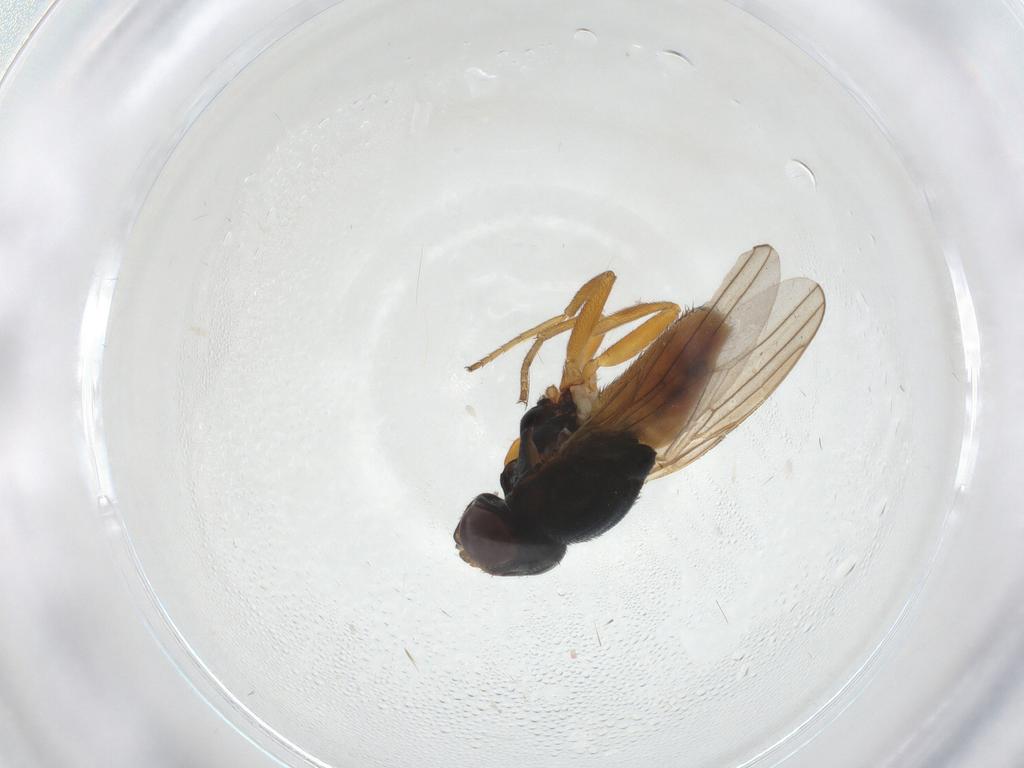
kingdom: Animalia
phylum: Arthropoda
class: Insecta
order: Diptera
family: Chloropidae
